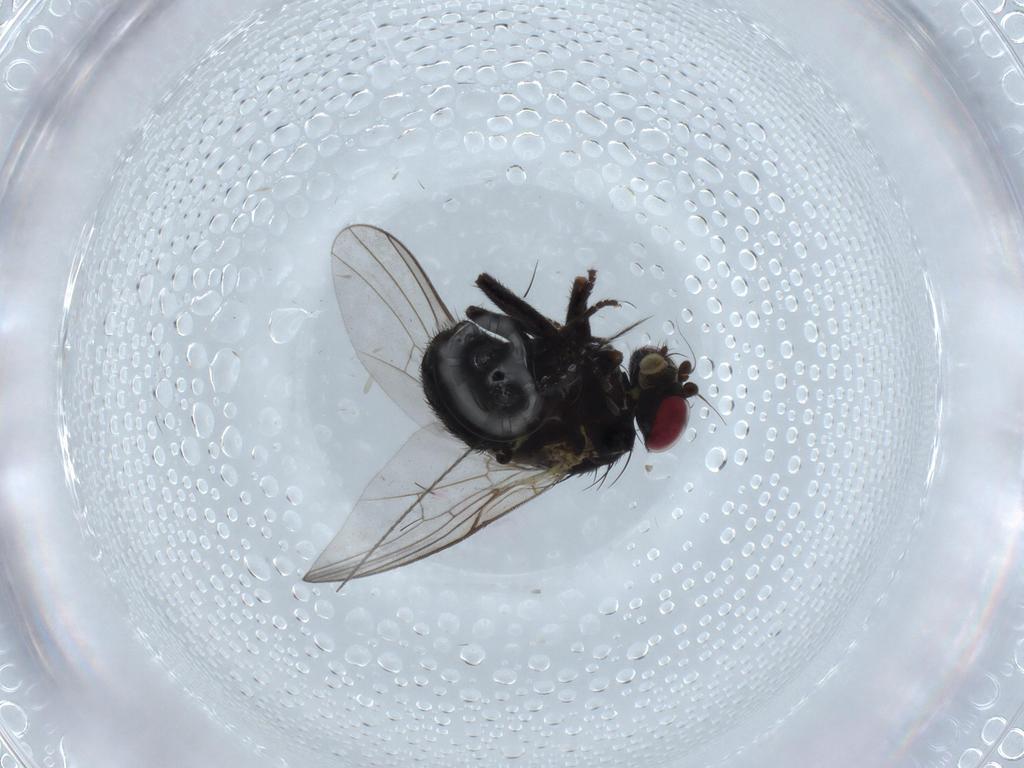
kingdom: Animalia
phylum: Arthropoda
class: Insecta
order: Diptera
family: Agromyzidae
